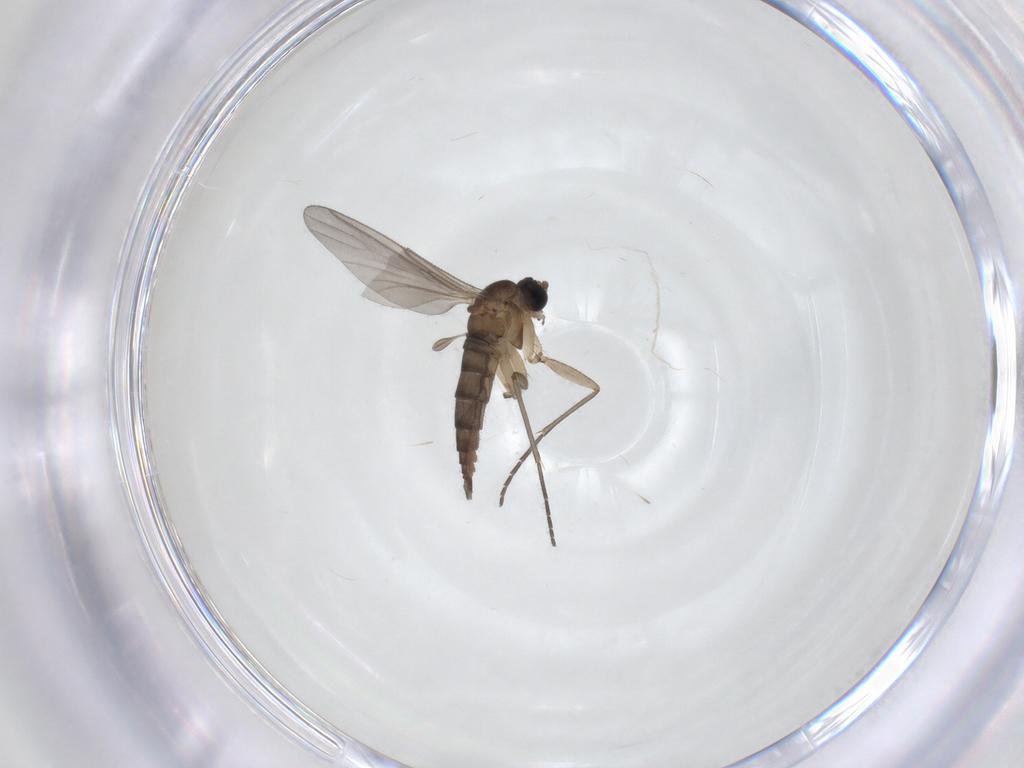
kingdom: Animalia
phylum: Arthropoda
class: Insecta
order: Diptera
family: Sciaridae
